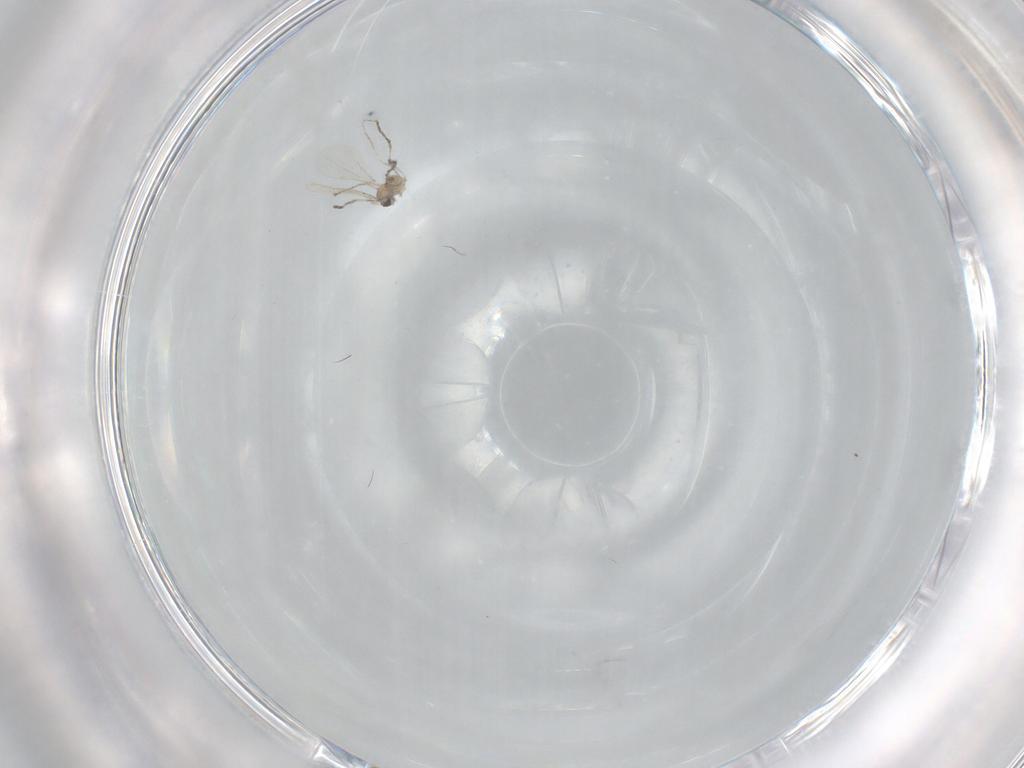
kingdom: Animalia
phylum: Arthropoda
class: Insecta
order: Diptera
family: Cecidomyiidae
